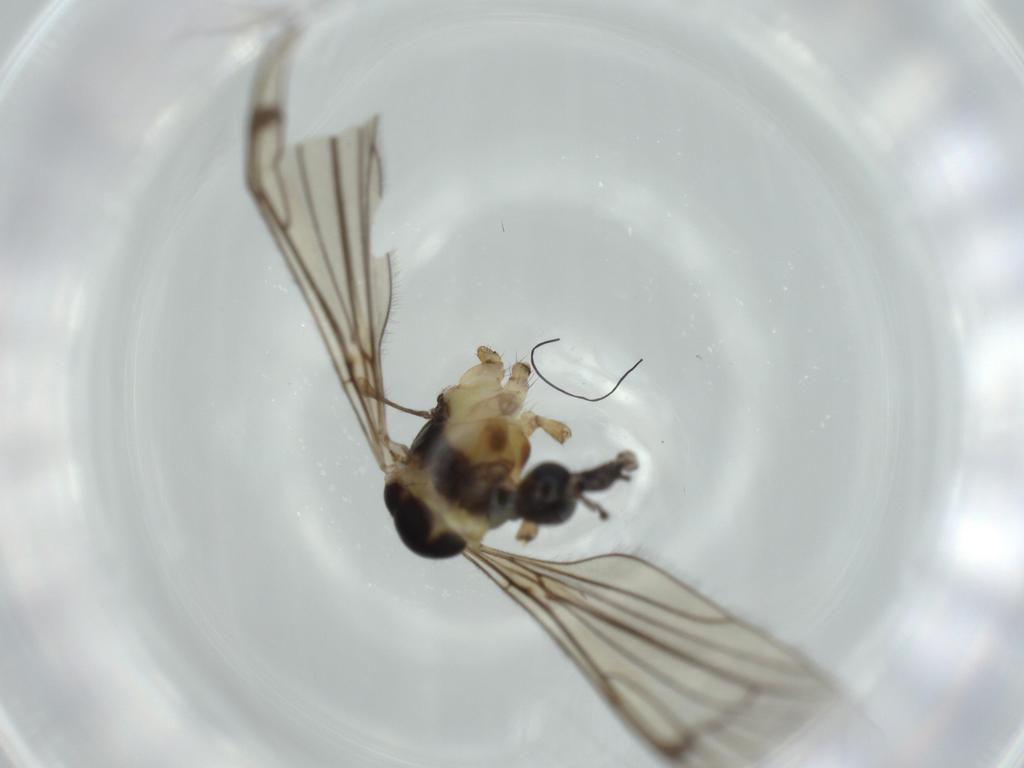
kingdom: Animalia
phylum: Arthropoda
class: Insecta
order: Diptera
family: Limoniidae
